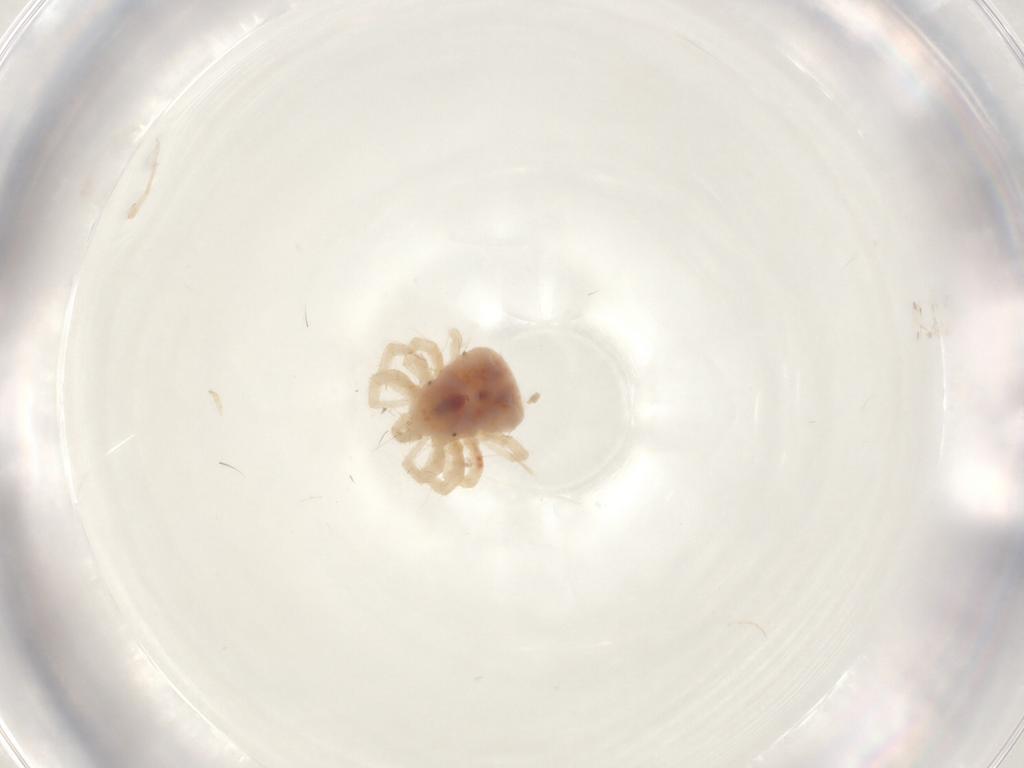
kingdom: Animalia
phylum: Arthropoda
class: Arachnida
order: Trombidiformes
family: Anystidae
